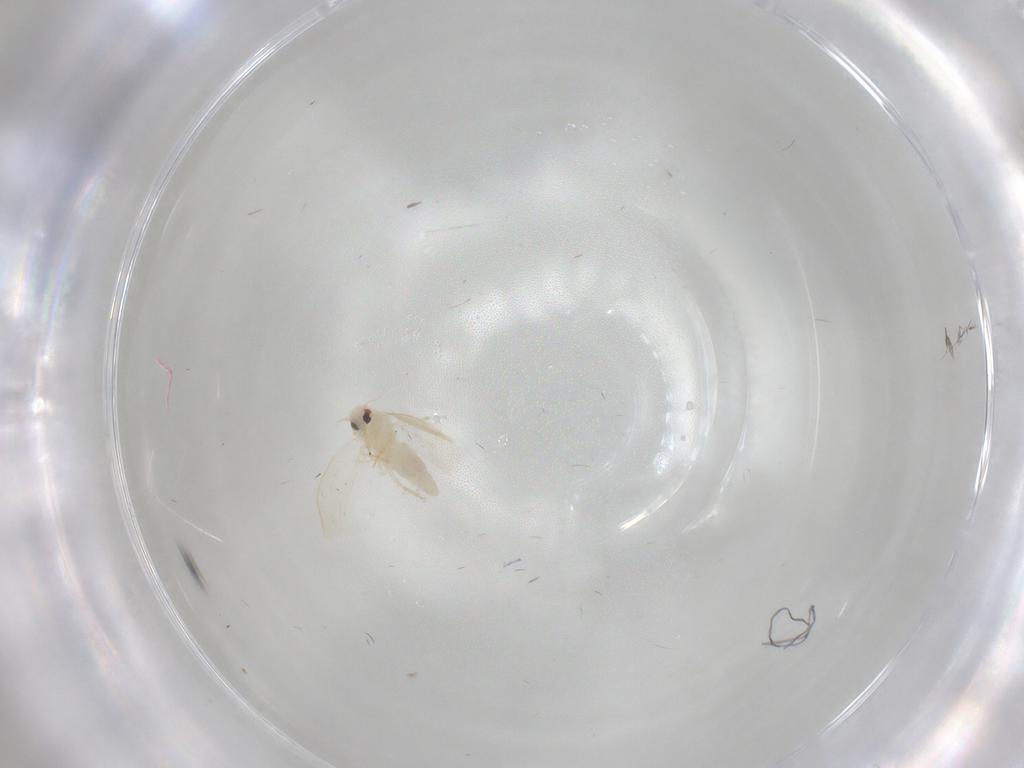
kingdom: Animalia
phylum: Arthropoda
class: Insecta
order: Hemiptera
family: Aleyrodidae
